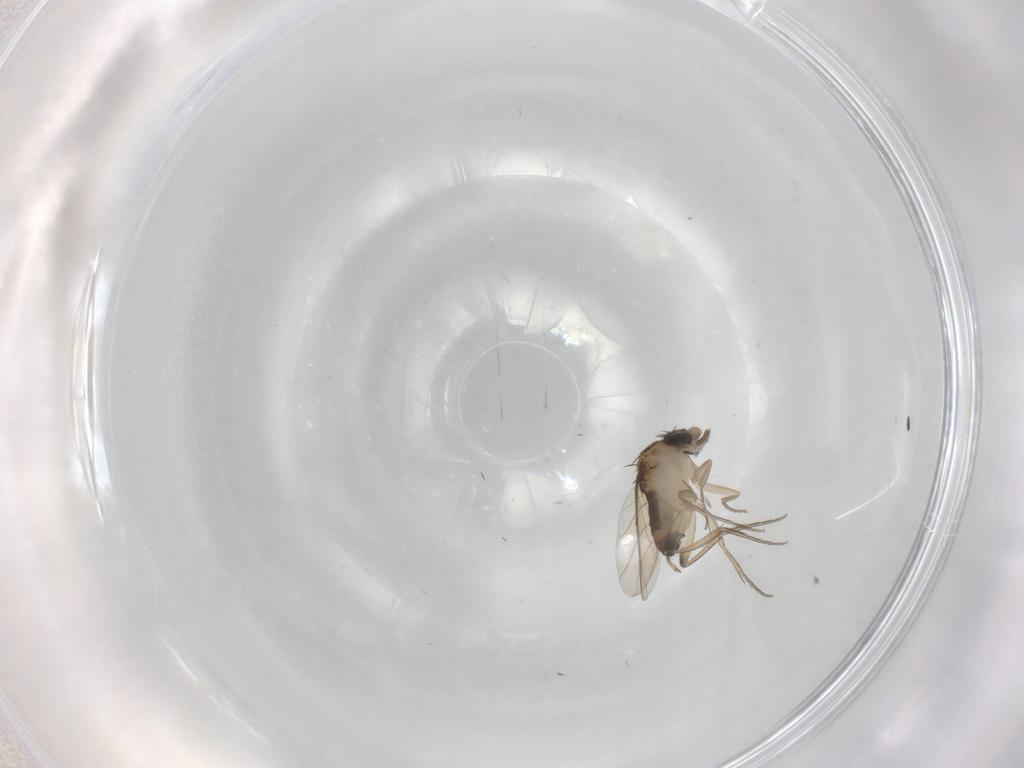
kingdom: Animalia
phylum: Arthropoda
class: Insecta
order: Diptera
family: Phoridae
